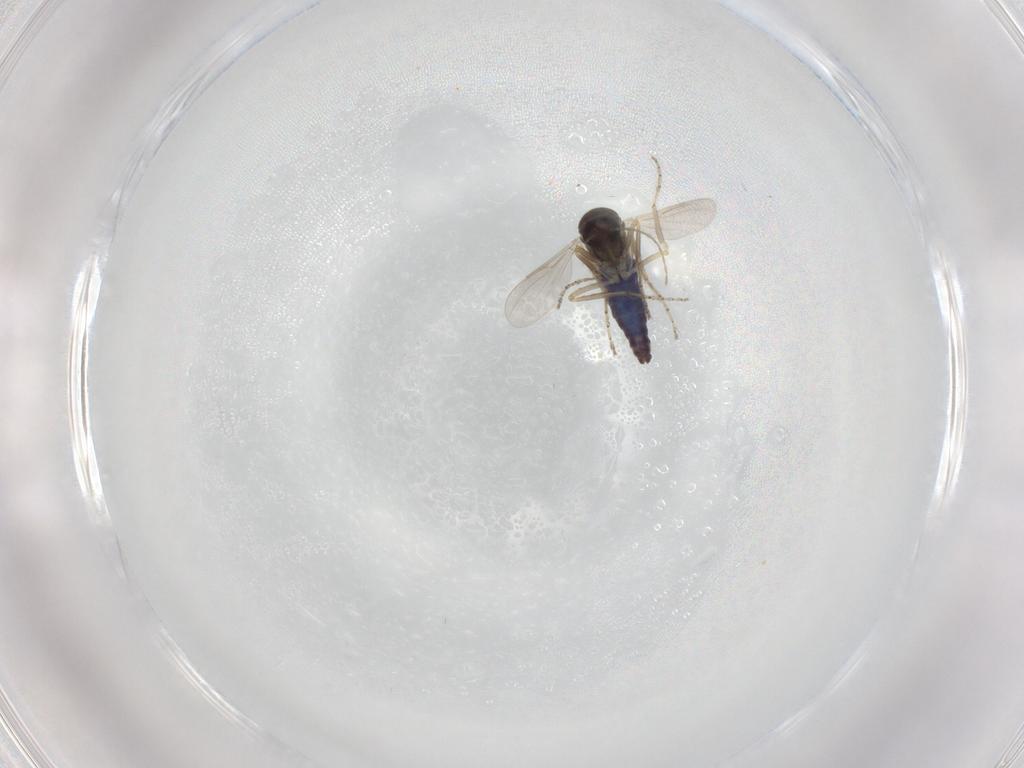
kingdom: Animalia
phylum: Arthropoda
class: Insecta
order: Diptera
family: Ceratopogonidae
